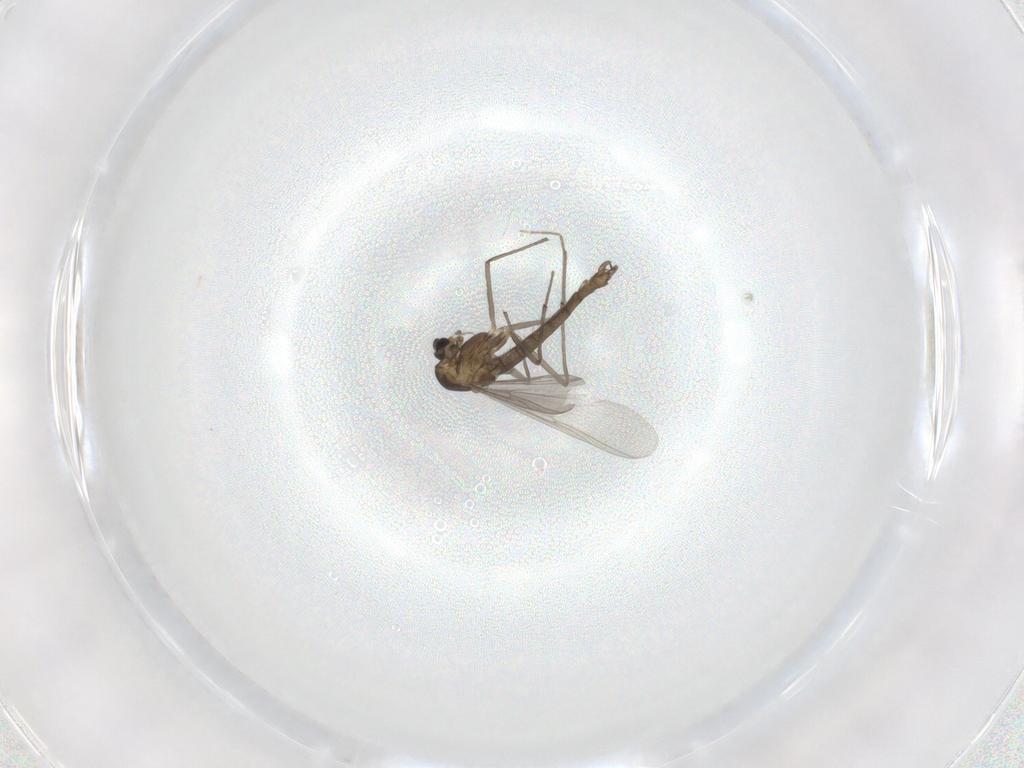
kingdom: Animalia
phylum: Arthropoda
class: Insecta
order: Diptera
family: Chironomidae
